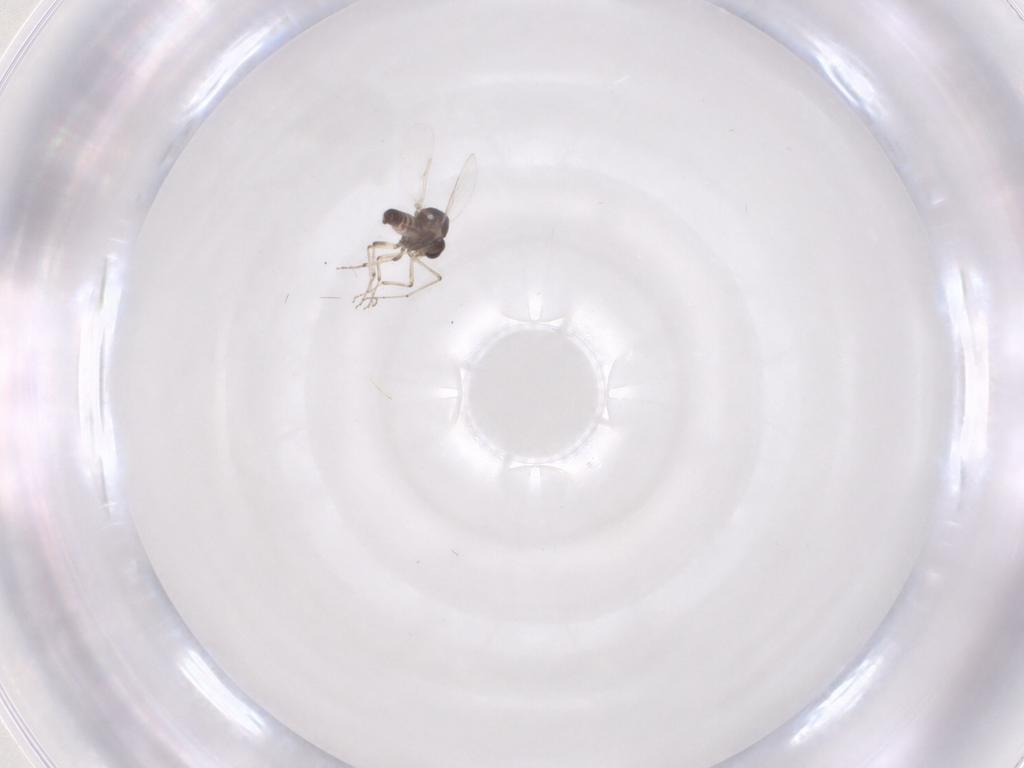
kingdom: Animalia
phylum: Arthropoda
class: Insecta
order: Diptera
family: Ceratopogonidae
